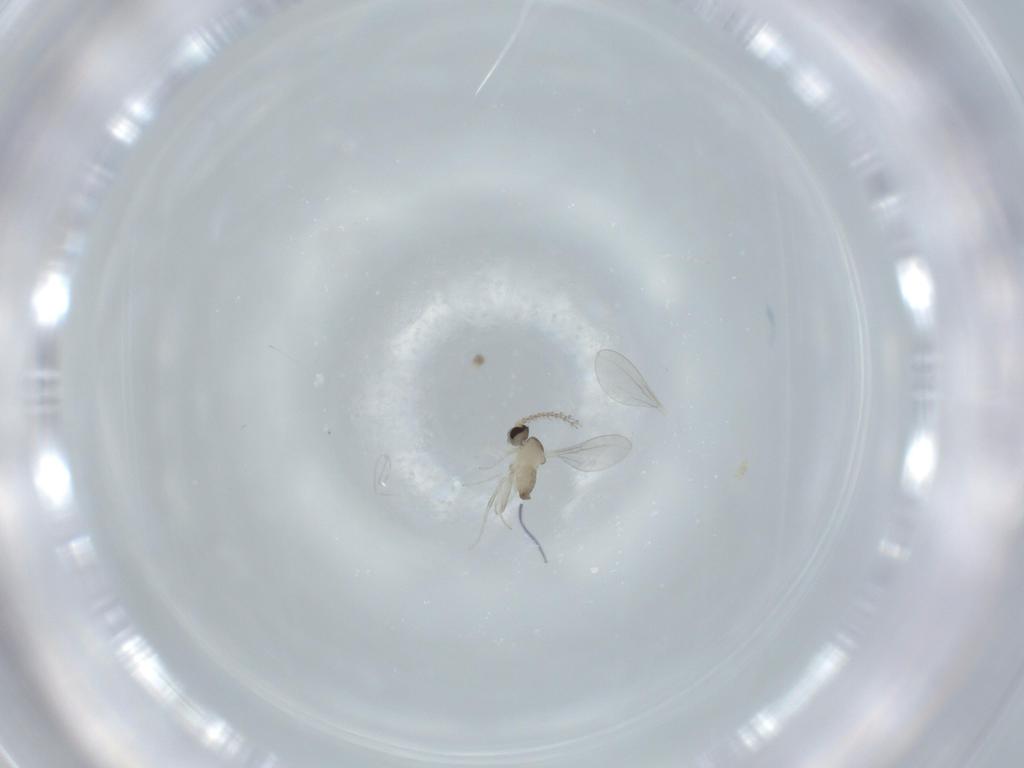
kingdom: Animalia
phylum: Arthropoda
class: Insecta
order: Diptera
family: Cecidomyiidae
